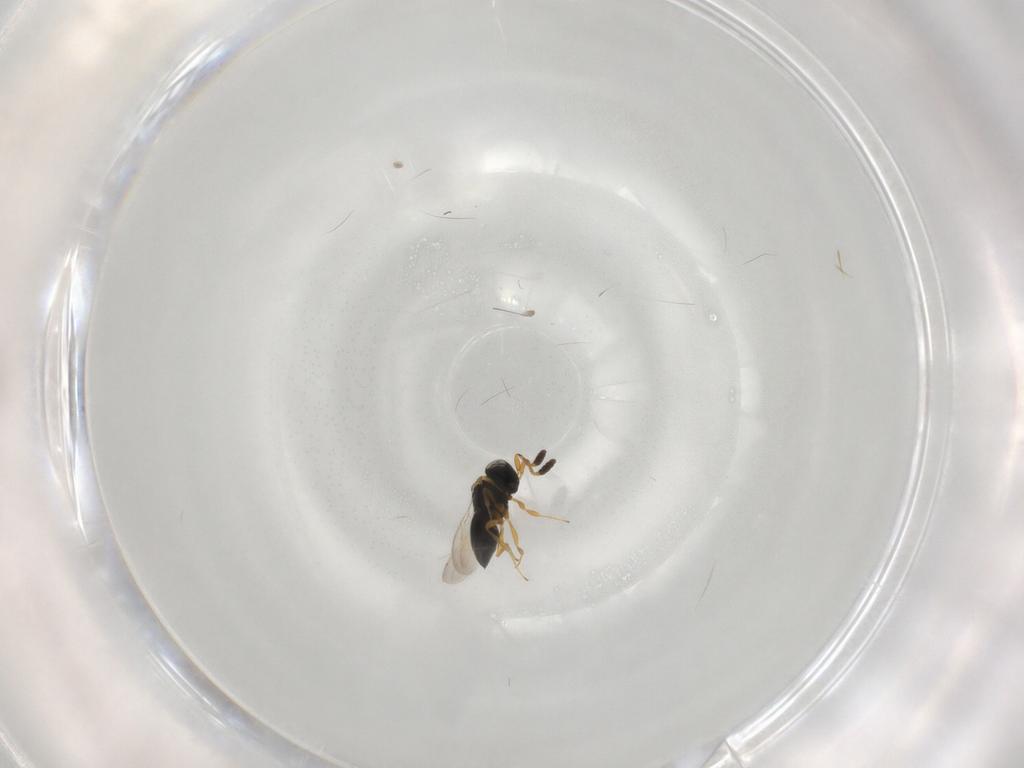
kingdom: Animalia
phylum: Arthropoda
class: Insecta
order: Hymenoptera
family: Scelionidae
